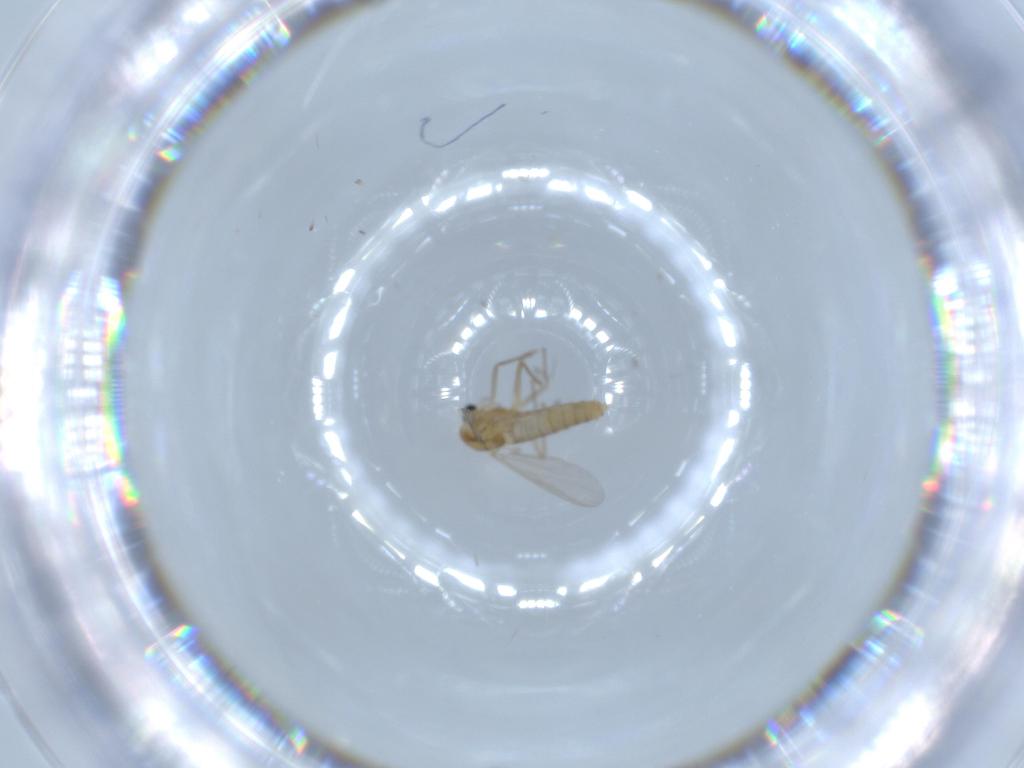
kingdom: Animalia
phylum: Arthropoda
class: Insecta
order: Diptera
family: Chironomidae
